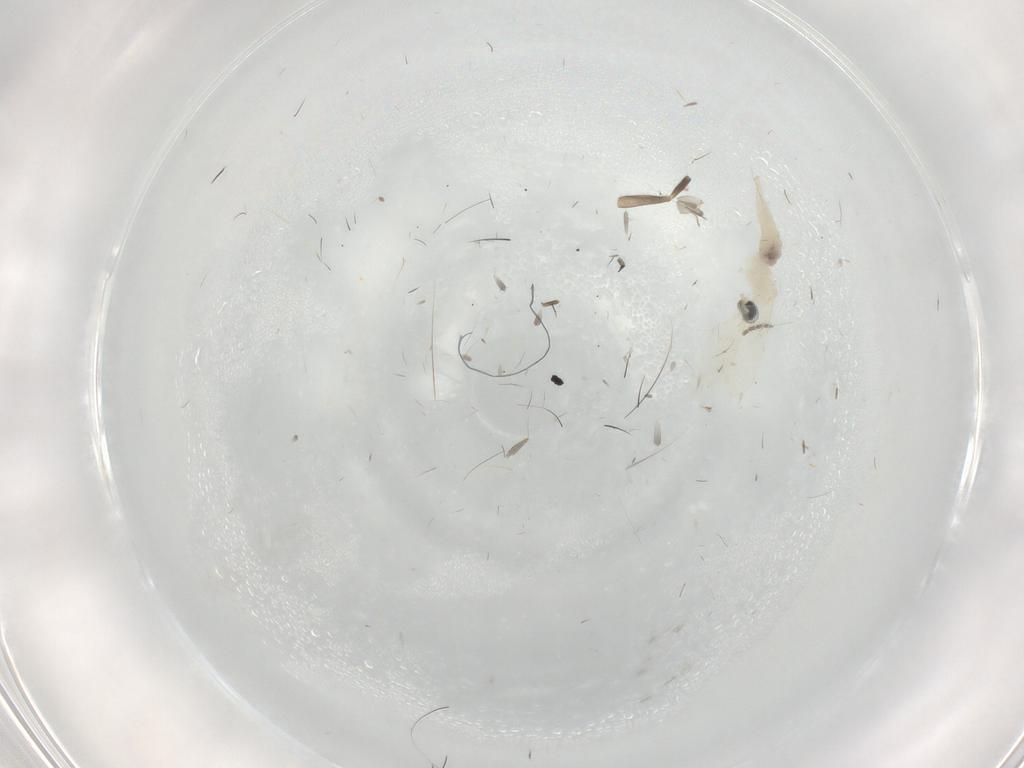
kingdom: Animalia
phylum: Arthropoda
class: Insecta
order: Diptera
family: Cecidomyiidae
